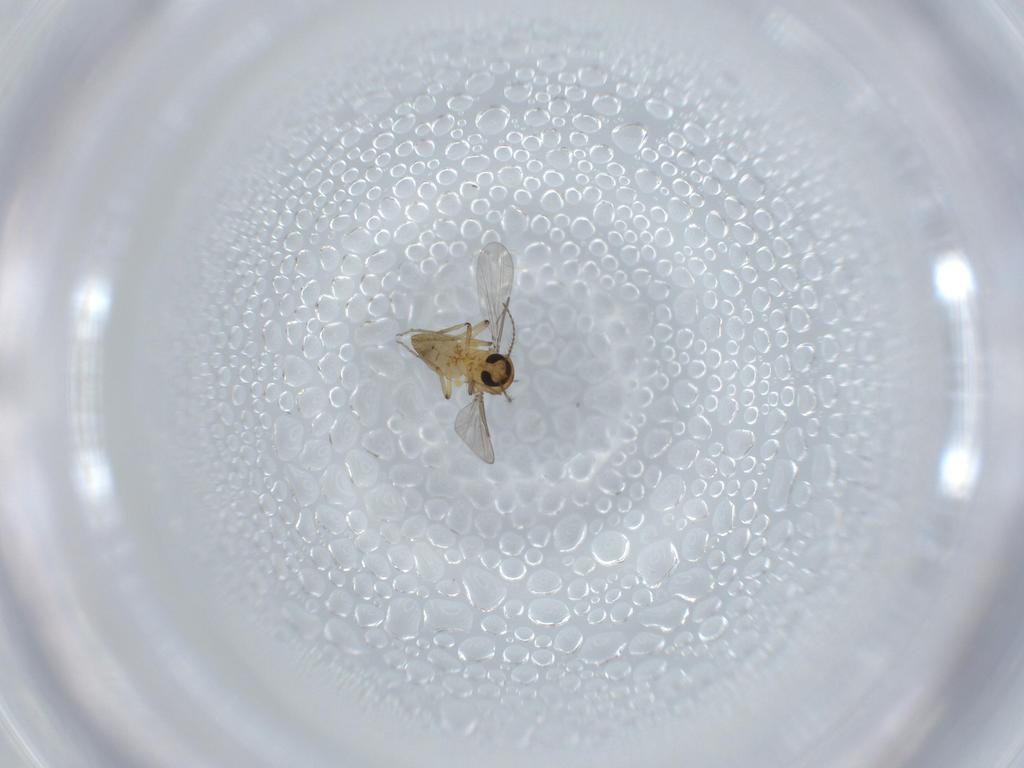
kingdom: Animalia
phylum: Arthropoda
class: Insecta
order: Diptera
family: Ceratopogonidae
